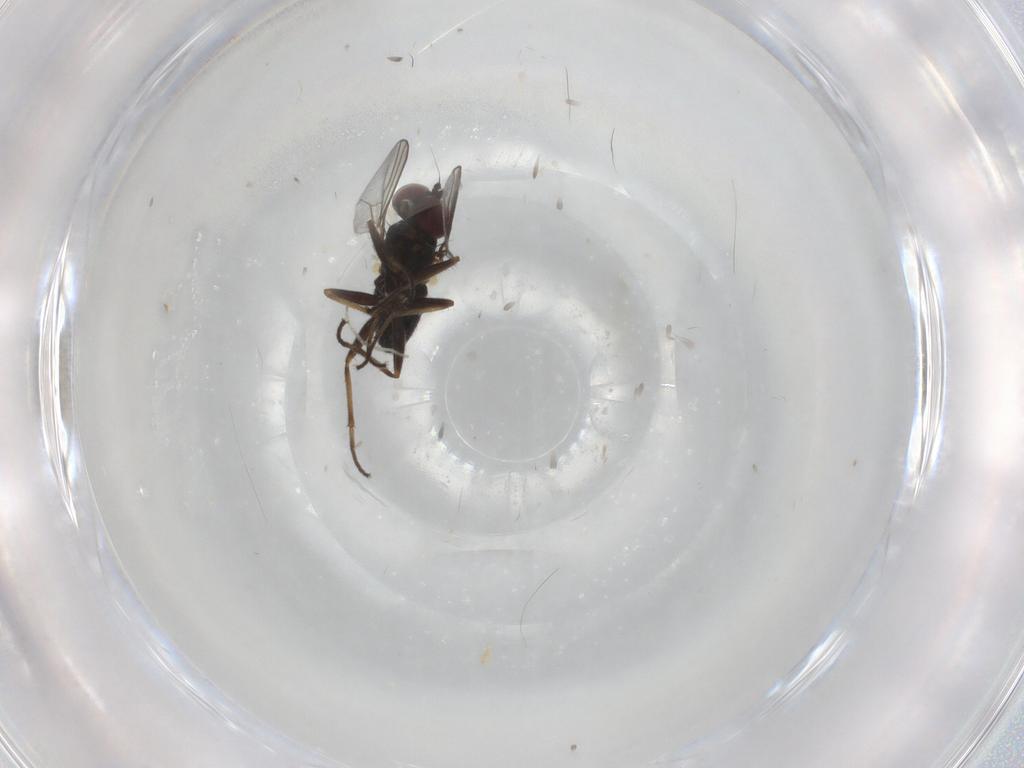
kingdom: Animalia
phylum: Arthropoda
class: Insecta
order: Diptera
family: Dolichopodidae
